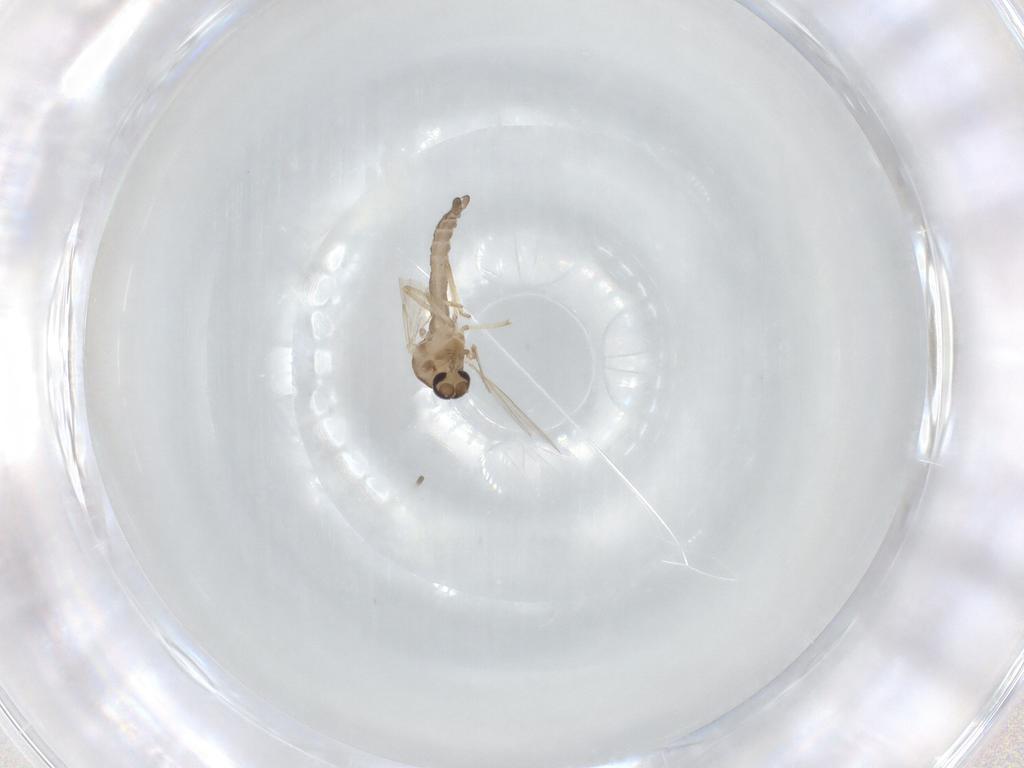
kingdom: Animalia
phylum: Arthropoda
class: Insecta
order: Diptera
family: Ceratopogonidae
